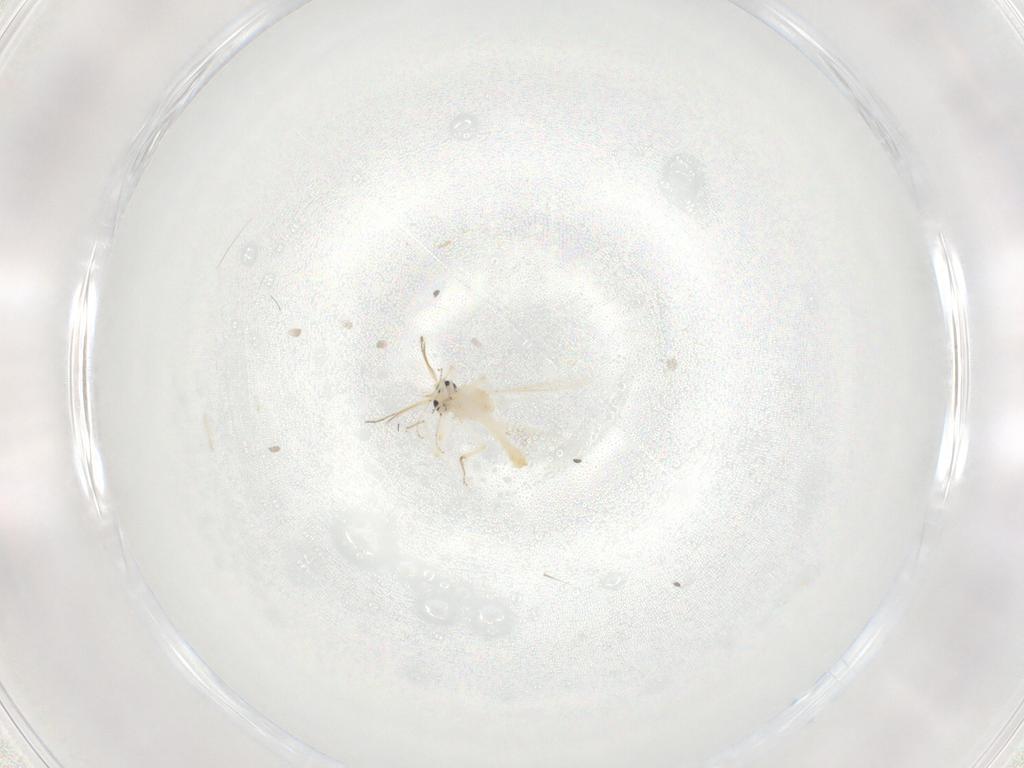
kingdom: Animalia
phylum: Arthropoda
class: Insecta
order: Diptera
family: Ceratopogonidae
